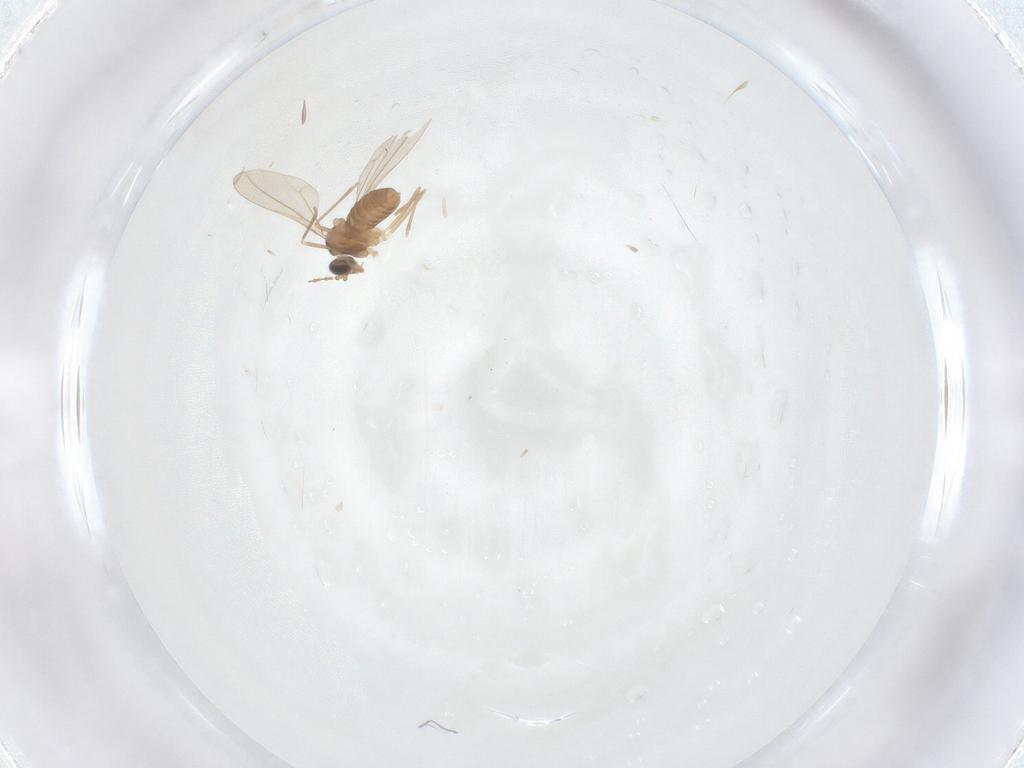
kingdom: Animalia
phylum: Arthropoda
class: Insecta
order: Diptera
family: Cecidomyiidae
